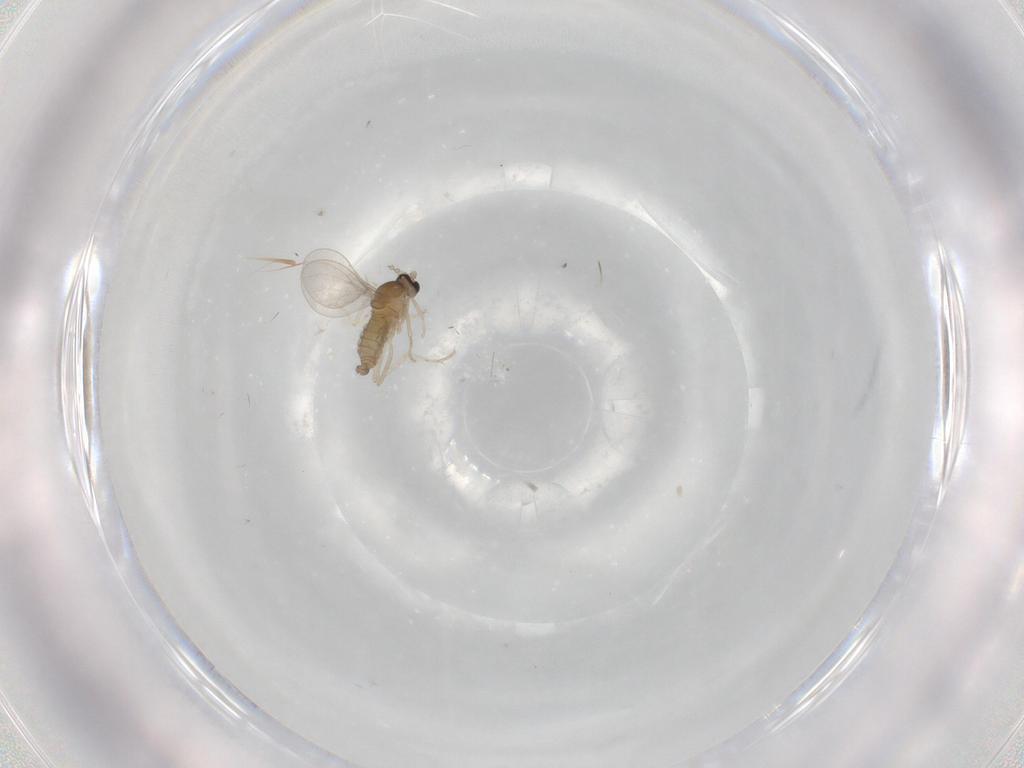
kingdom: Animalia
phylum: Arthropoda
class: Insecta
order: Diptera
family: Cecidomyiidae
